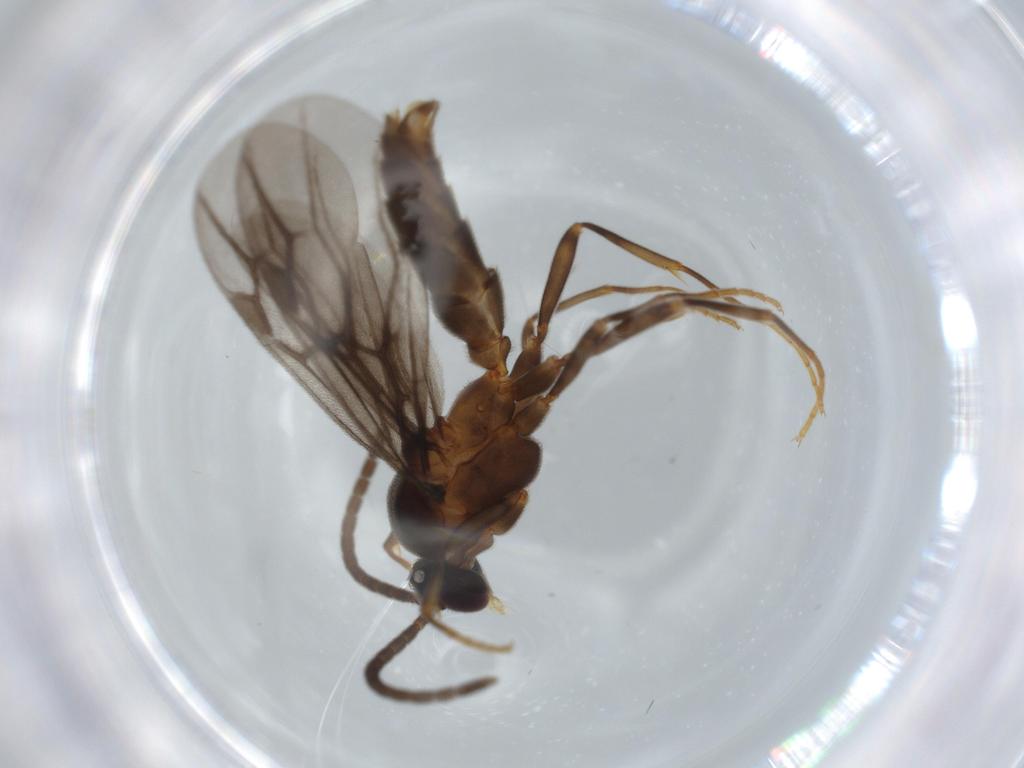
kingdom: Animalia
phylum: Arthropoda
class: Insecta
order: Hymenoptera
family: Formicidae
